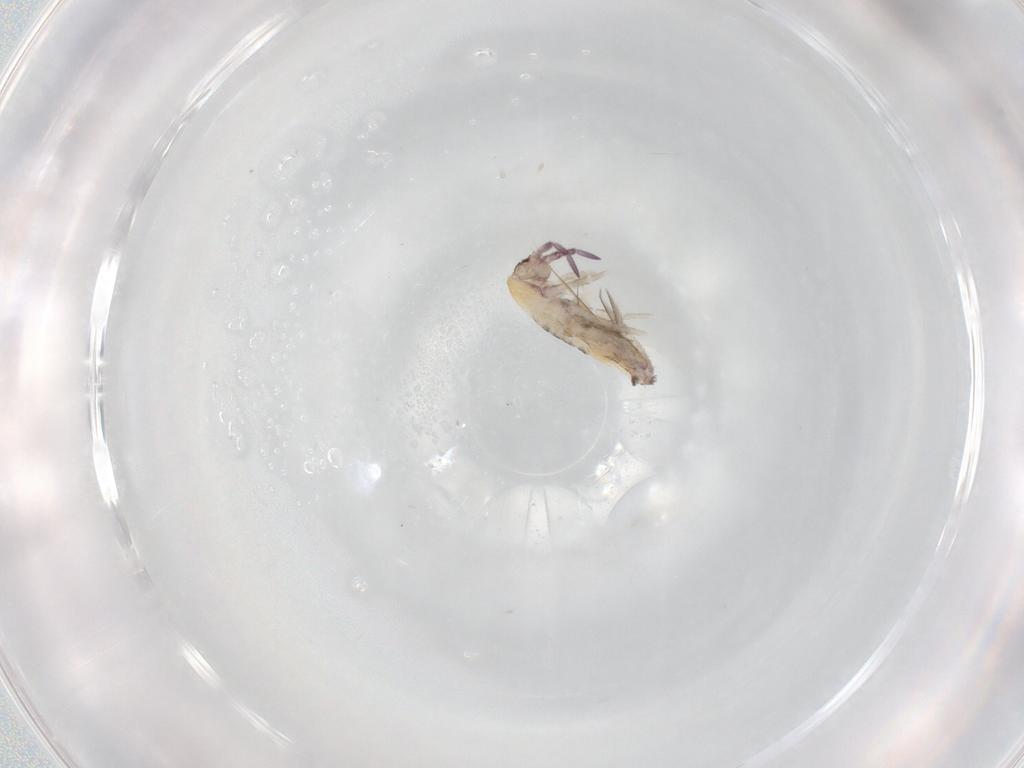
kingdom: Animalia
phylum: Arthropoda
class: Collembola
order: Entomobryomorpha
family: Entomobryidae
